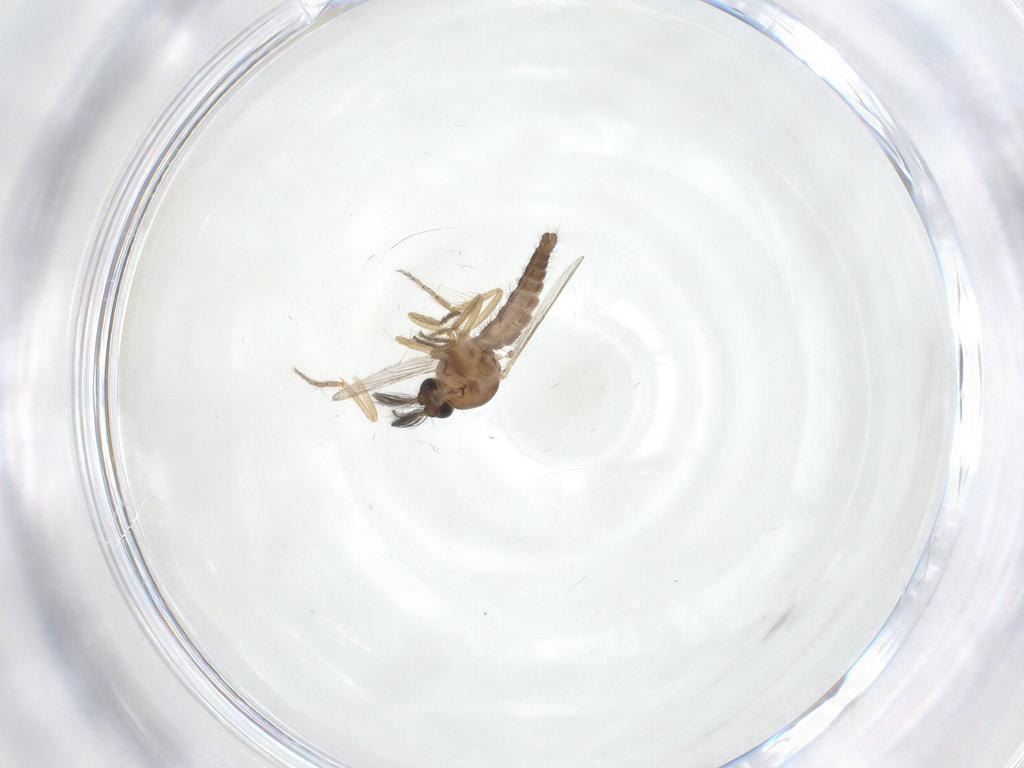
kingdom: Animalia
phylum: Arthropoda
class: Insecta
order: Diptera
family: Ceratopogonidae
